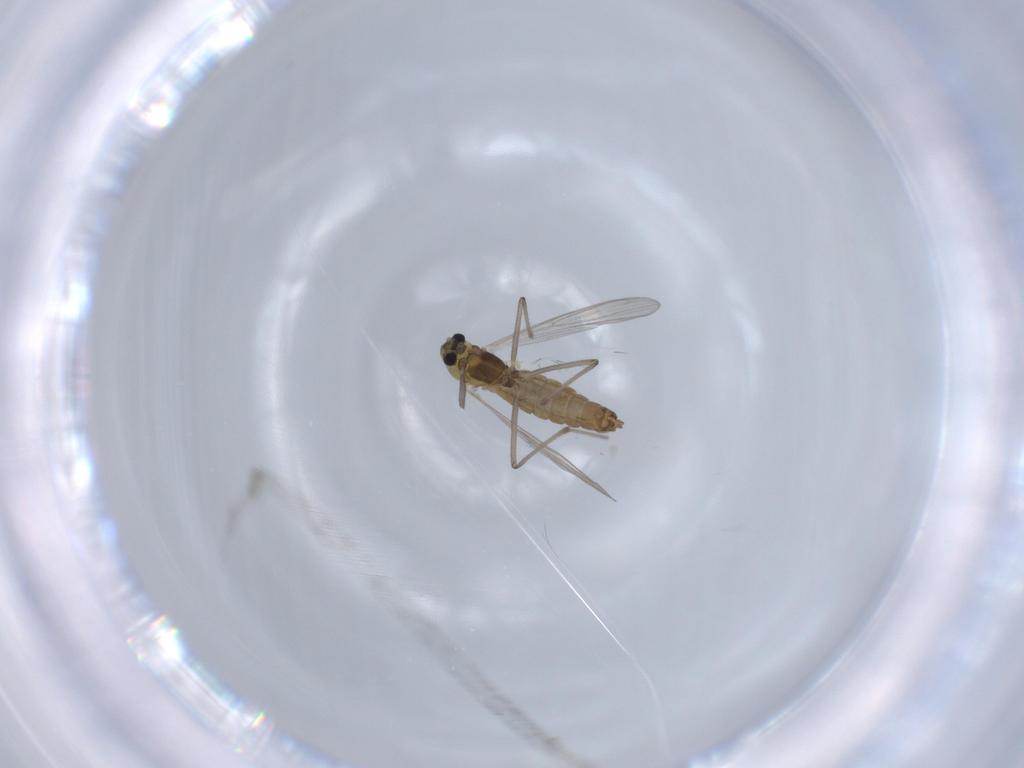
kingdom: Animalia
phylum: Arthropoda
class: Insecta
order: Diptera
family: Chironomidae
